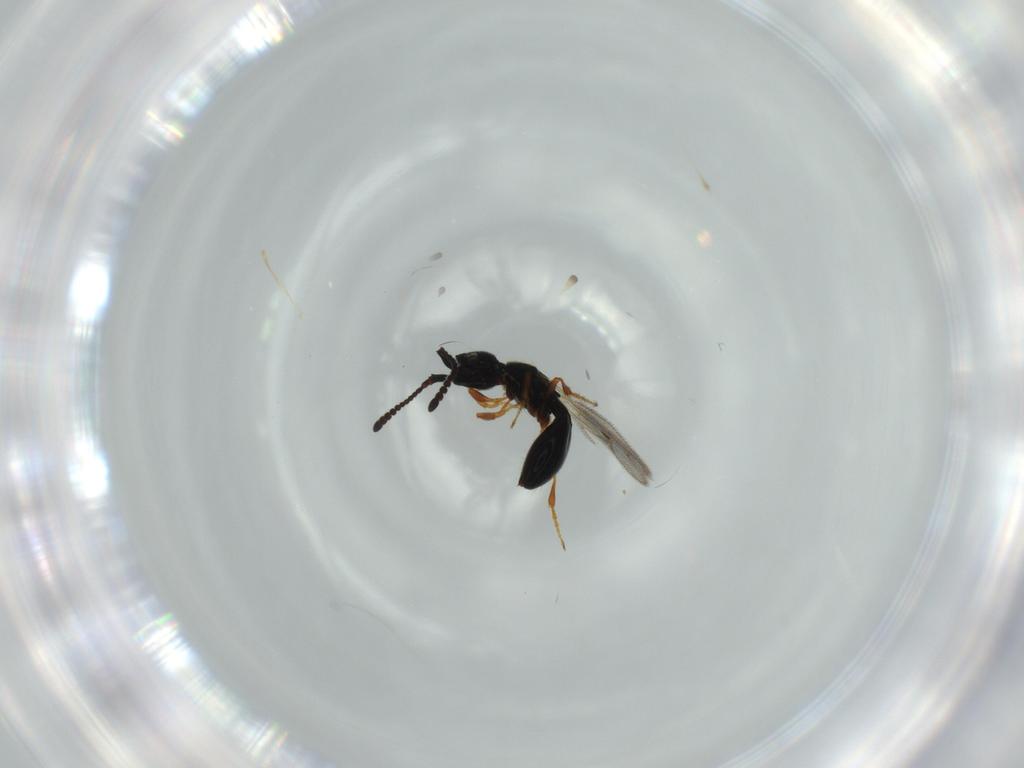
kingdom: Animalia
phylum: Arthropoda
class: Insecta
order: Hymenoptera
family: Diapriidae
